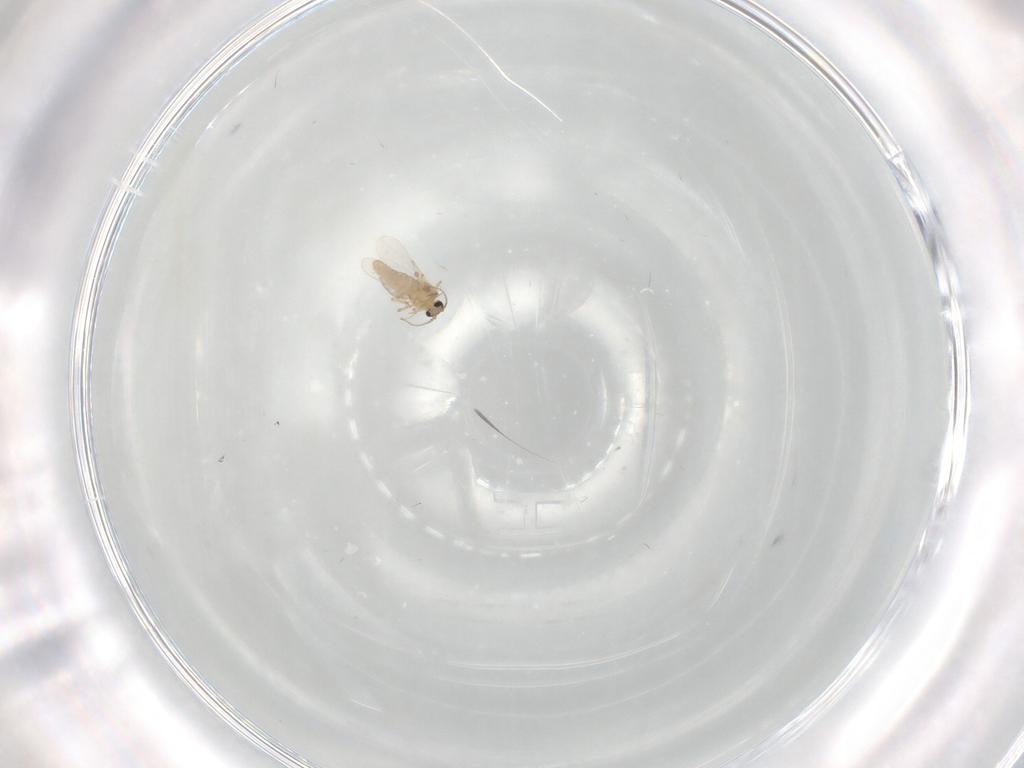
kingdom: Animalia
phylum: Arthropoda
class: Insecta
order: Diptera
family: Ceratopogonidae
